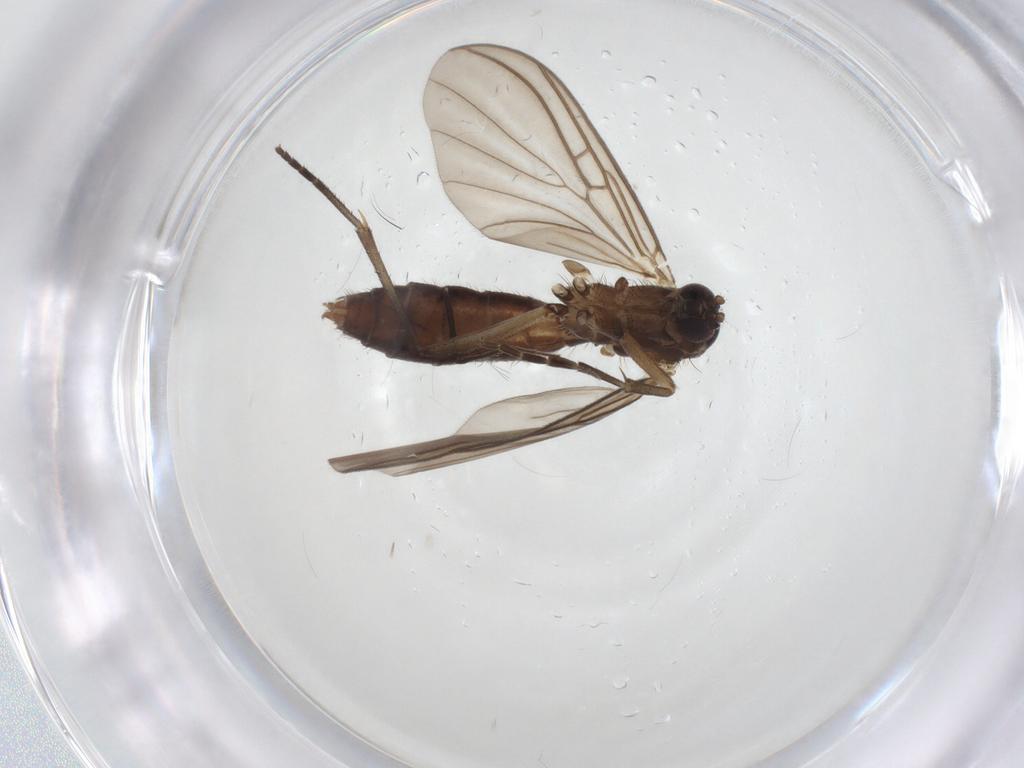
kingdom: Animalia
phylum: Arthropoda
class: Insecta
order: Diptera
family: Mycetophilidae
